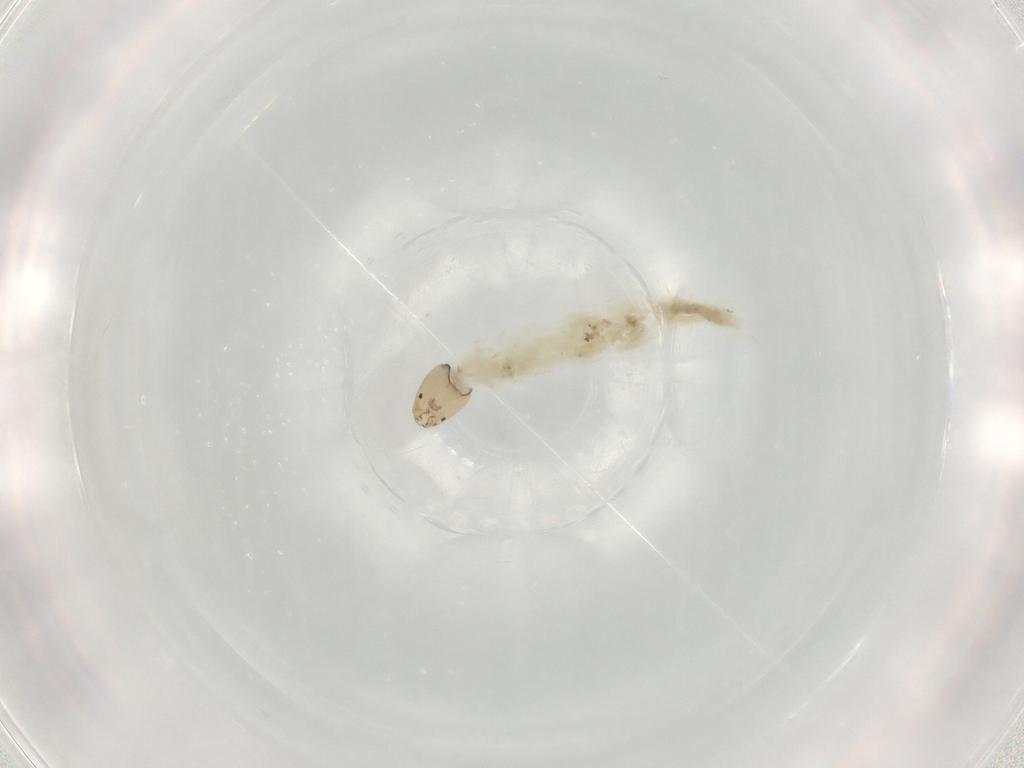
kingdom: Animalia
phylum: Arthropoda
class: Insecta
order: Diptera
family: Chironomidae
